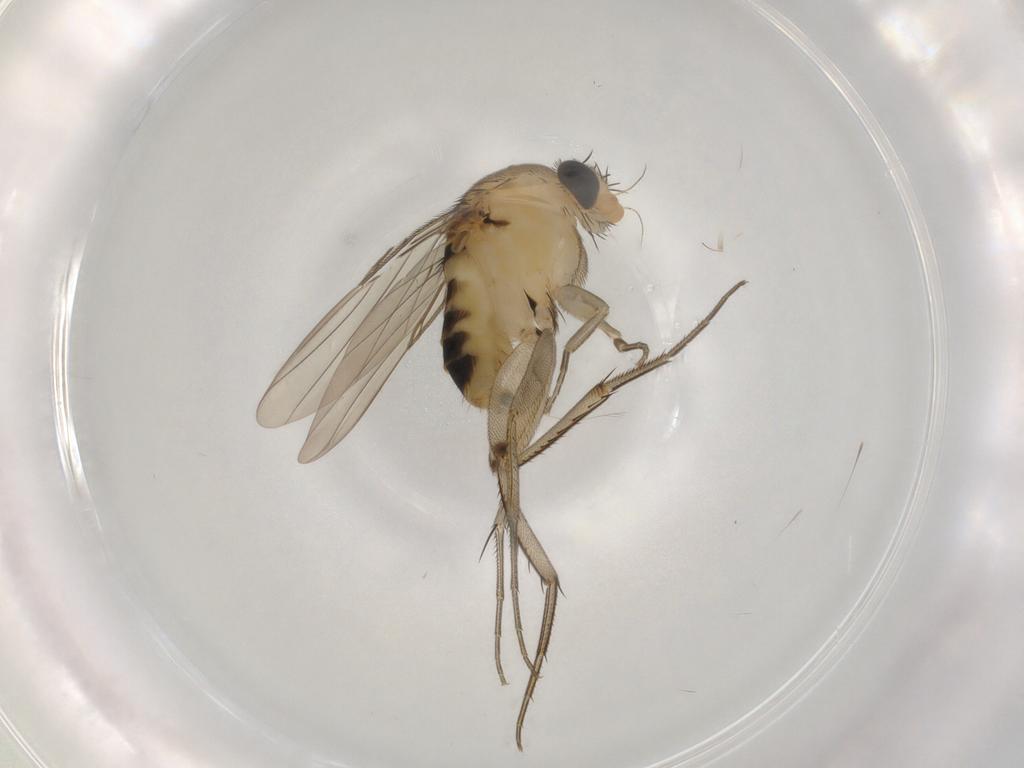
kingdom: Animalia
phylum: Arthropoda
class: Insecta
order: Diptera
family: Phoridae
